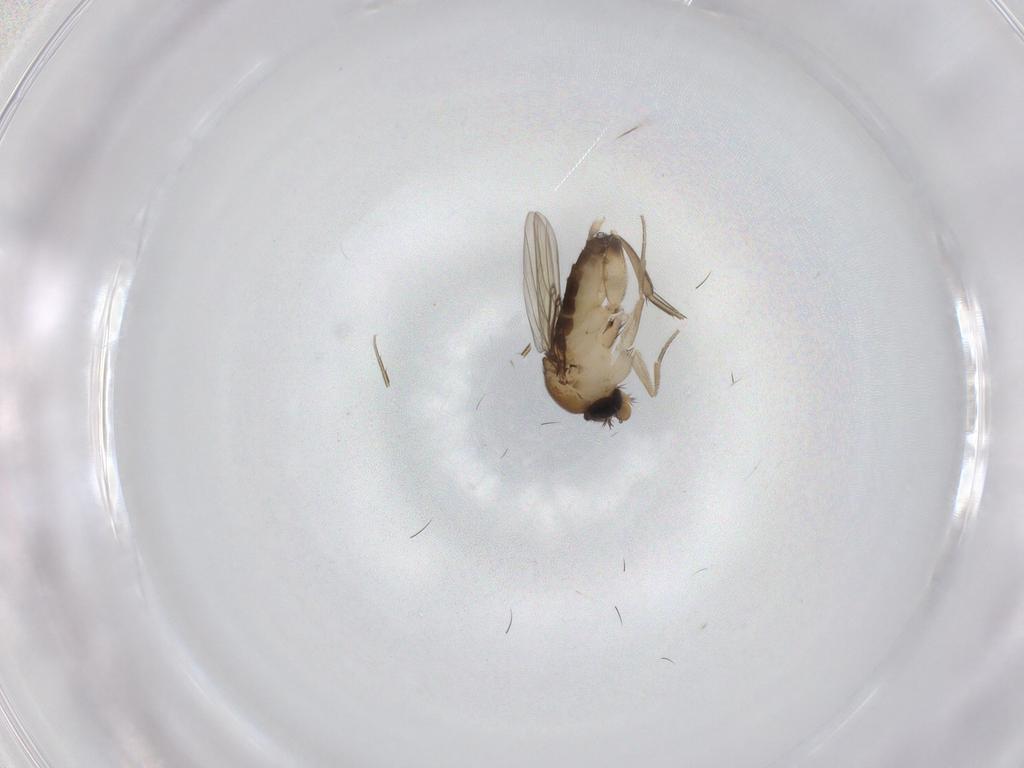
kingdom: Animalia
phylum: Arthropoda
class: Insecta
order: Diptera
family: Phoridae
